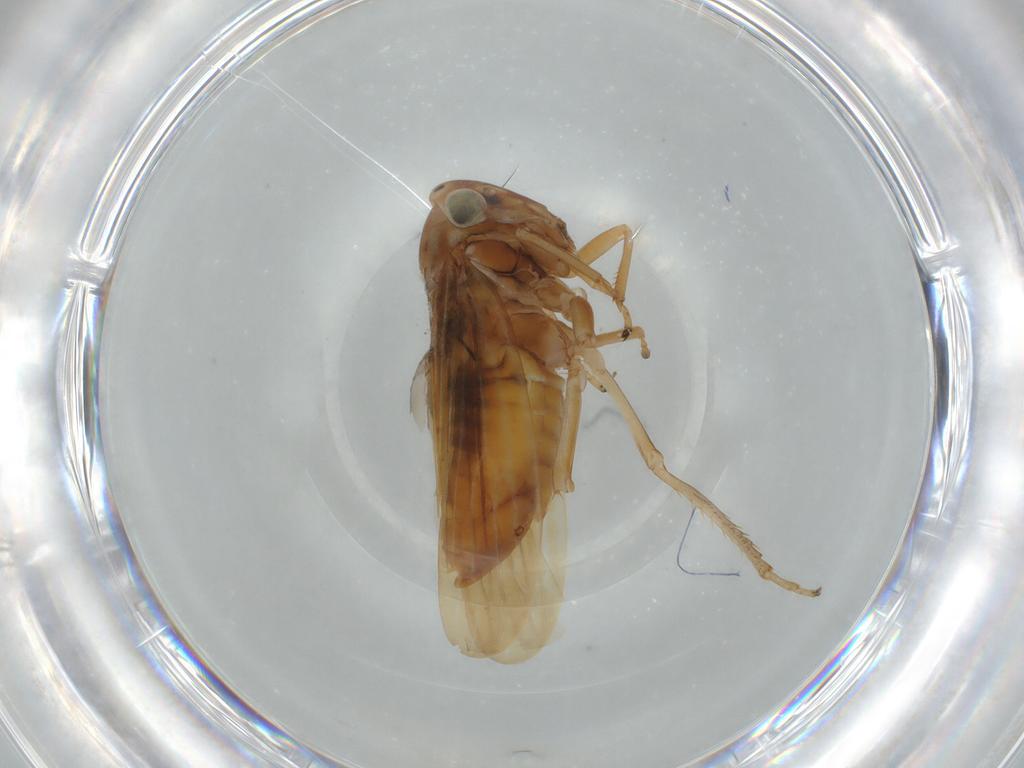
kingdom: Animalia
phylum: Arthropoda
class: Insecta
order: Hemiptera
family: Cicadellidae
